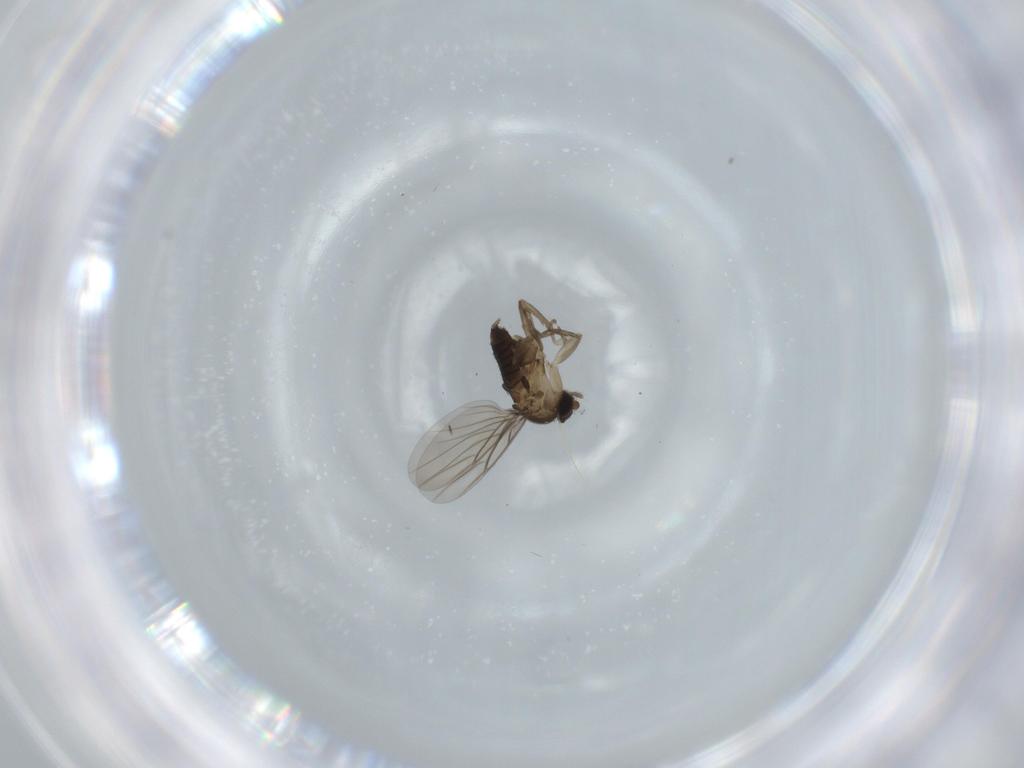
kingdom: Animalia
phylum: Arthropoda
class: Insecta
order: Diptera
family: Phoridae
